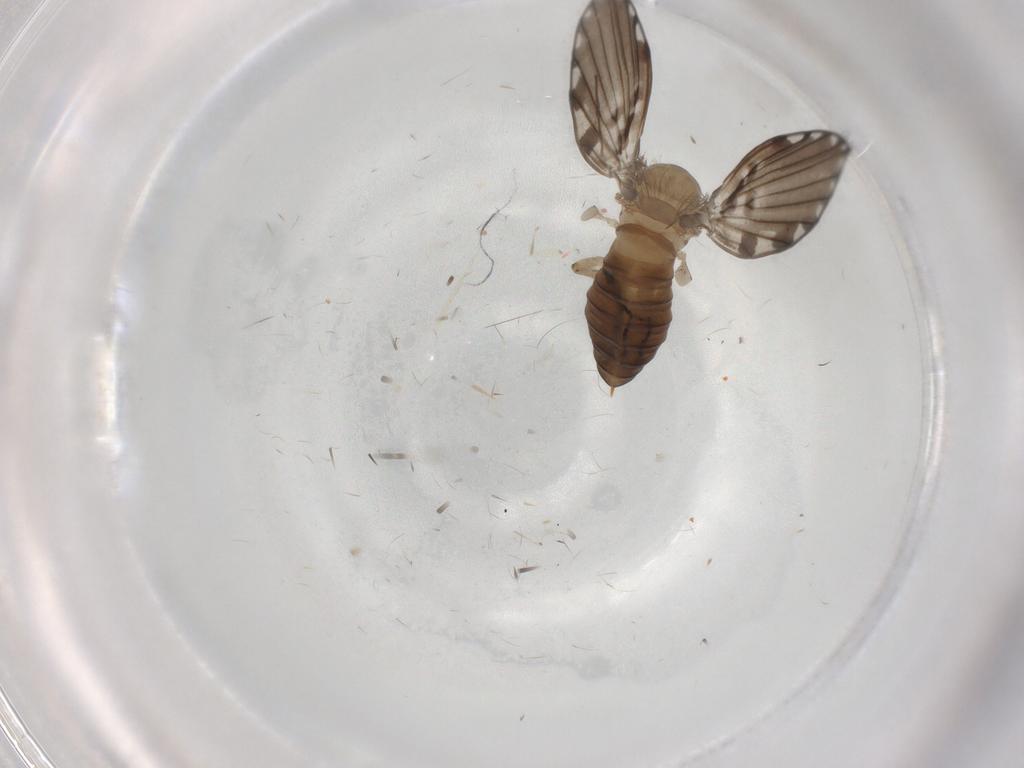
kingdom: Animalia
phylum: Arthropoda
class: Insecta
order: Diptera
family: Psychodidae
